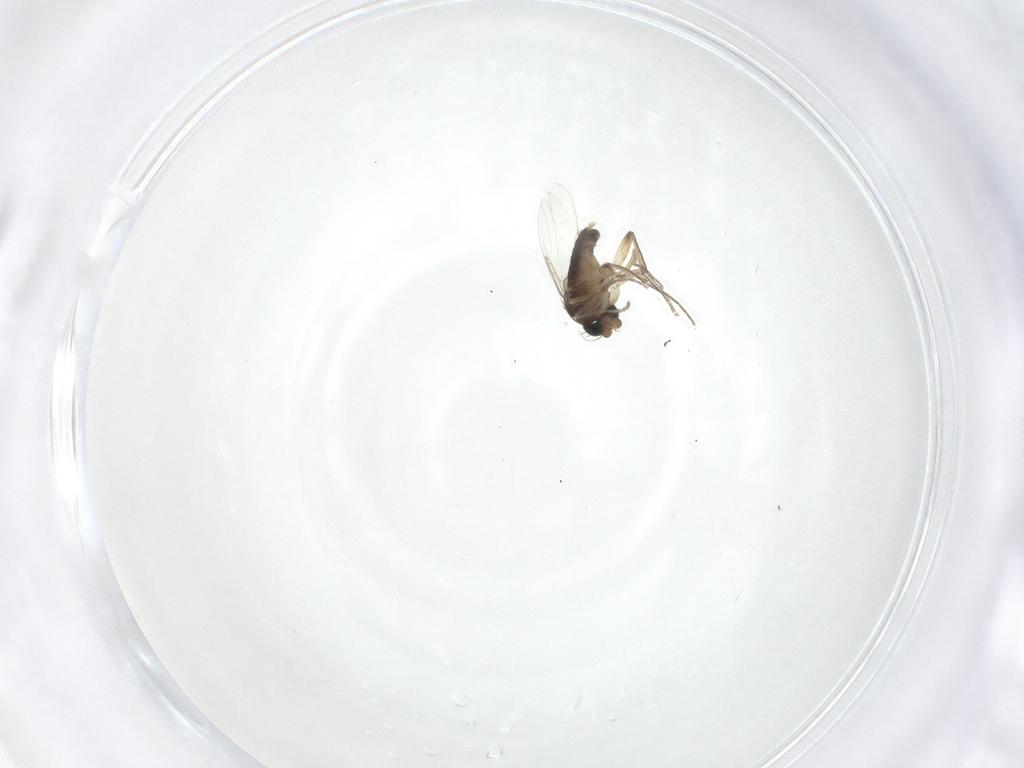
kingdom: Animalia
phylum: Arthropoda
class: Insecta
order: Diptera
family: Phoridae
